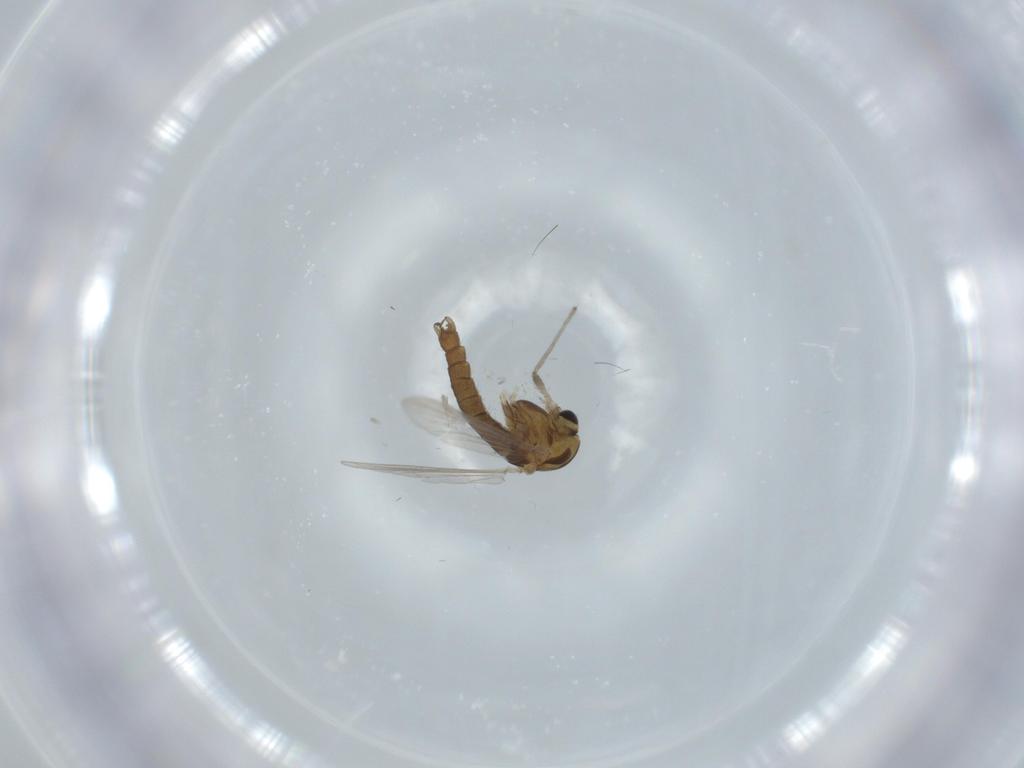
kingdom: Animalia
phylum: Arthropoda
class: Insecta
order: Diptera
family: Chironomidae
